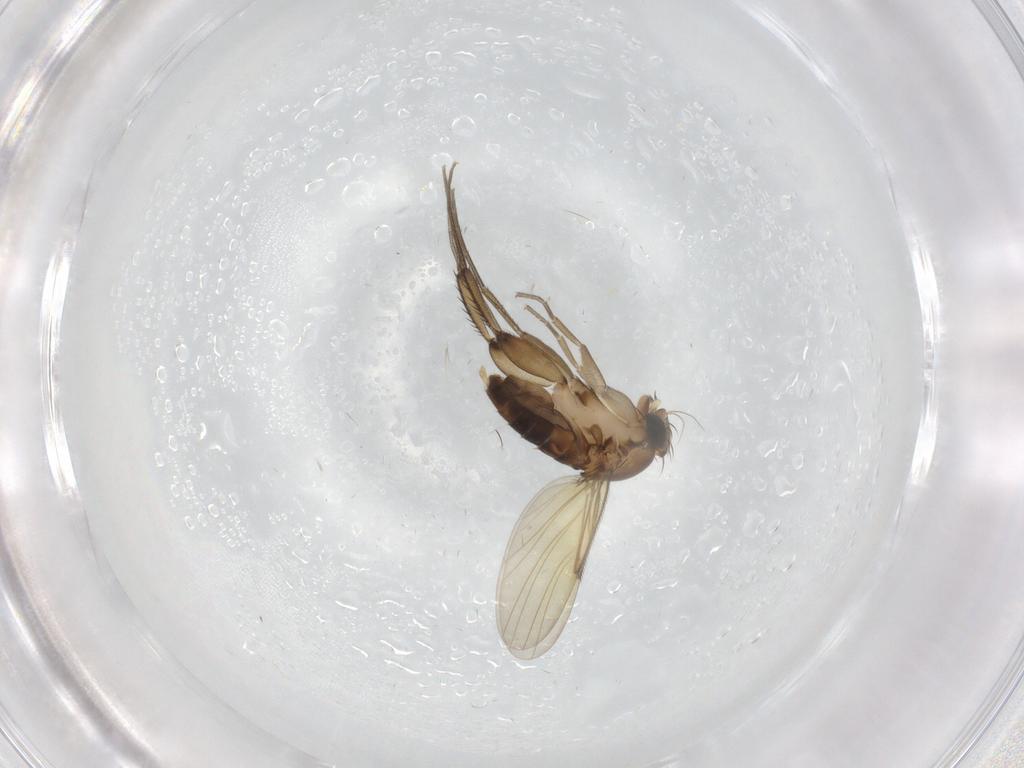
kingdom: Animalia
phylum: Arthropoda
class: Insecta
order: Diptera
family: Phoridae
